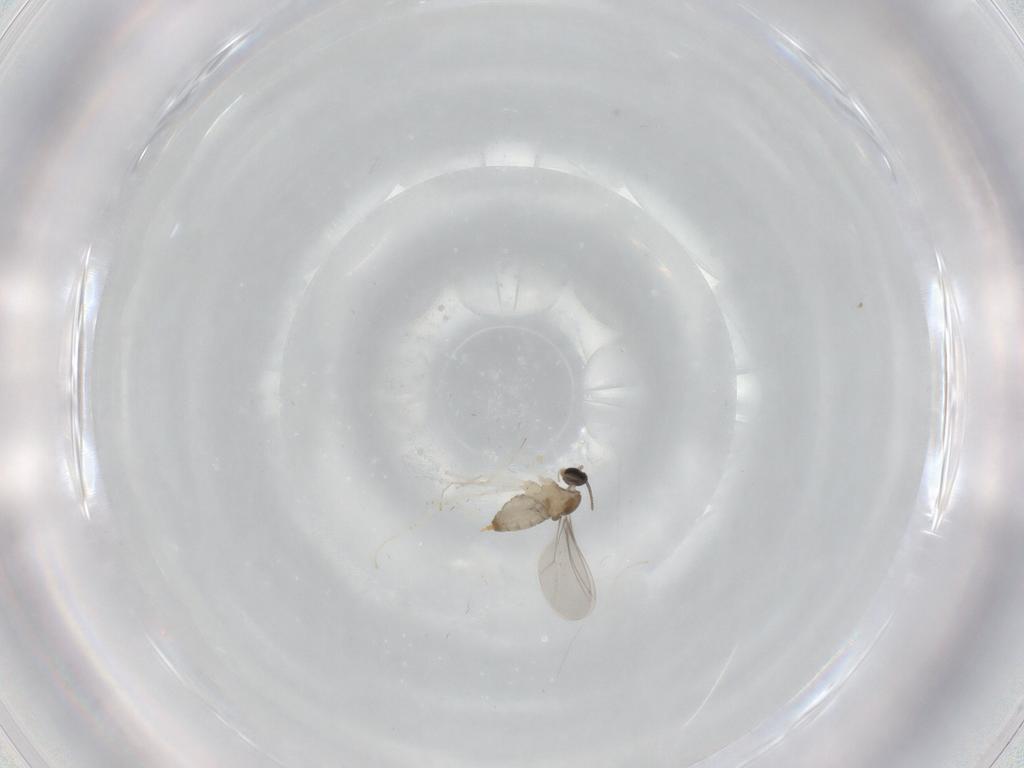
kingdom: Animalia
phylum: Arthropoda
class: Insecta
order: Diptera
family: Cecidomyiidae
